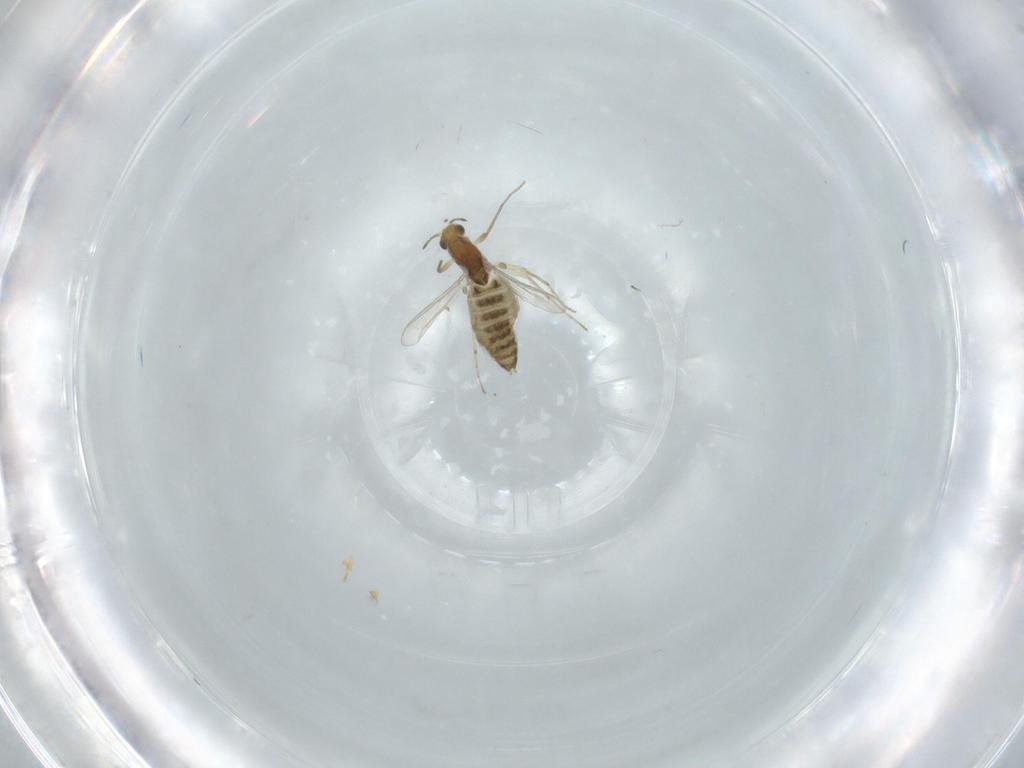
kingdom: Animalia
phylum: Arthropoda
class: Insecta
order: Diptera
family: Chironomidae
